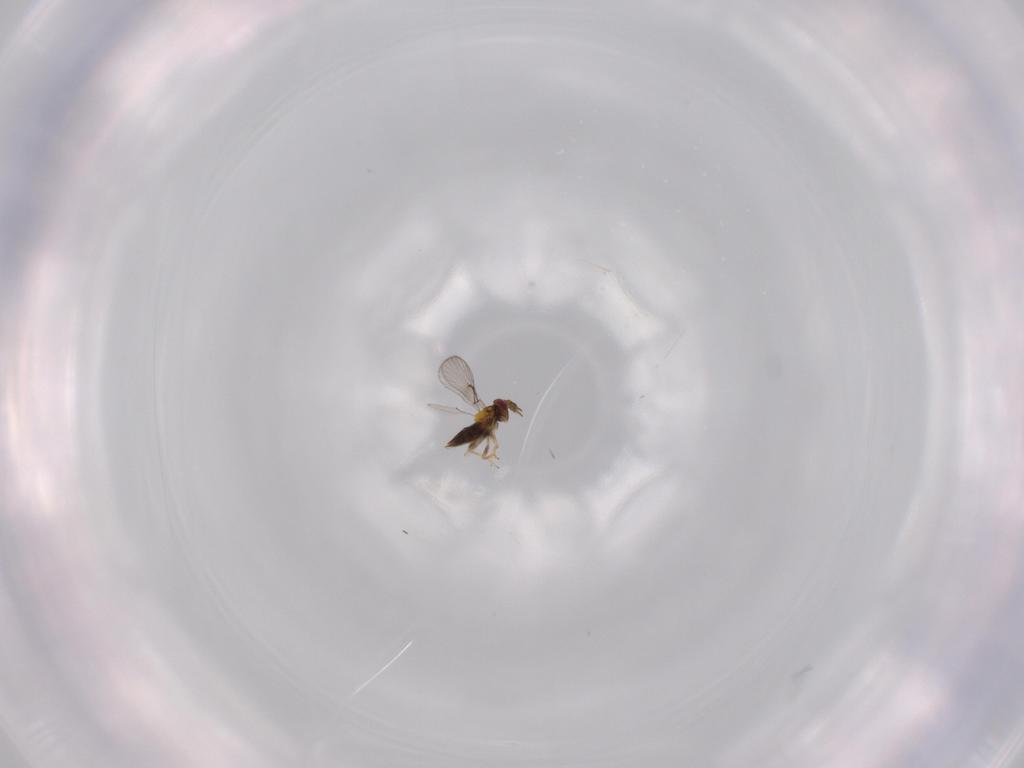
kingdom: Animalia
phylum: Arthropoda
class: Insecta
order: Hymenoptera
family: Trichogrammatidae
